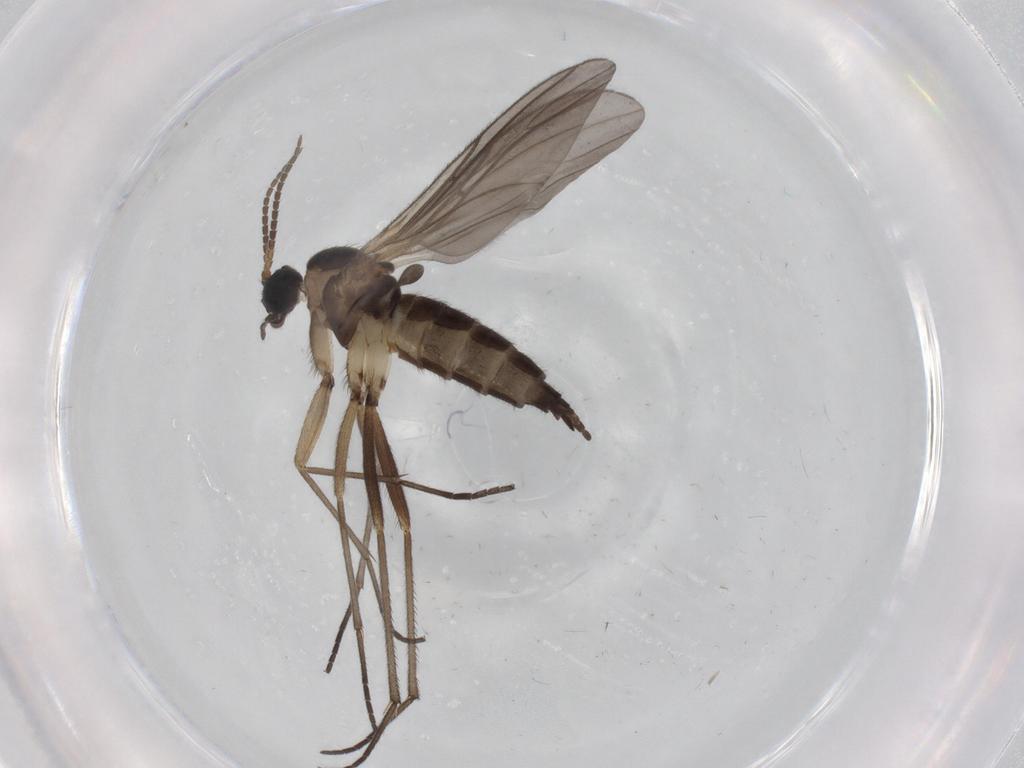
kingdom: Animalia
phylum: Arthropoda
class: Insecta
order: Diptera
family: Sciaridae
